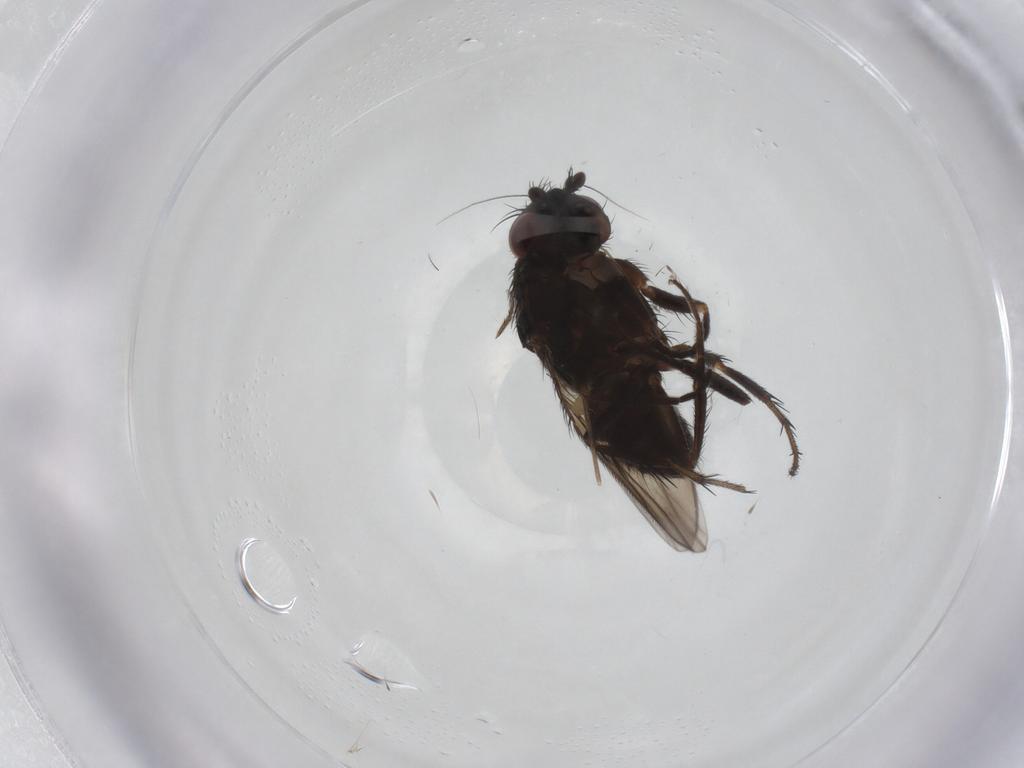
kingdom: Animalia
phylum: Arthropoda
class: Insecta
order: Diptera
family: Sphaeroceridae
